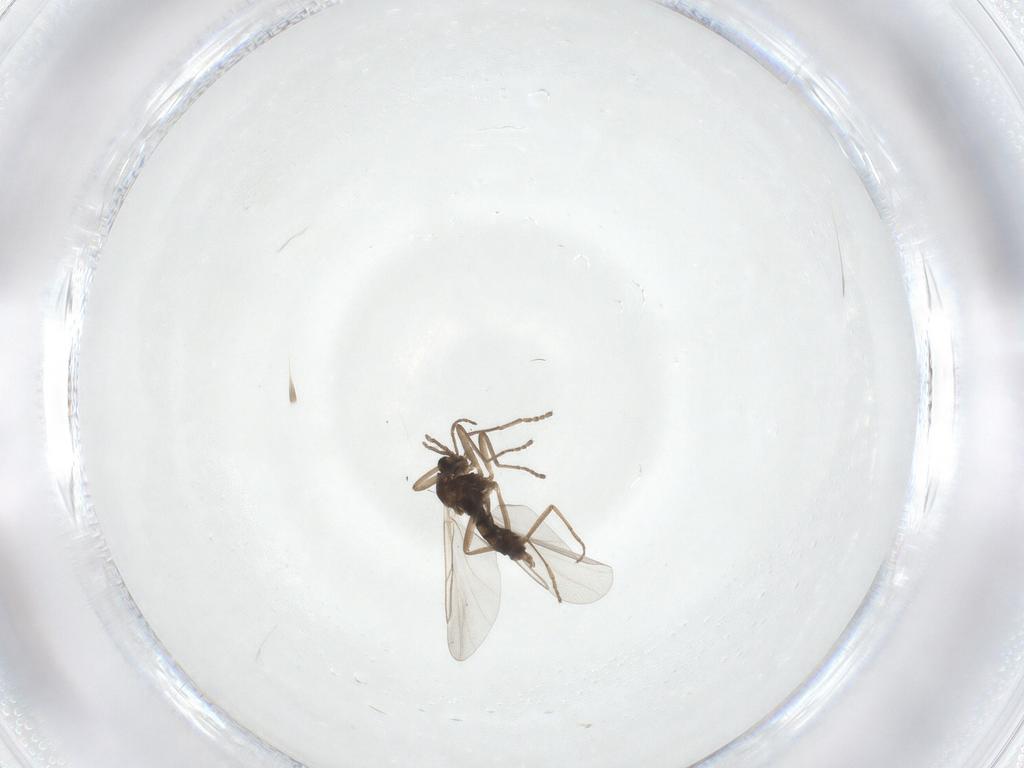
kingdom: Animalia
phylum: Arthropoda
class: Insecta
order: Diptera
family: Cecidomyiidae
